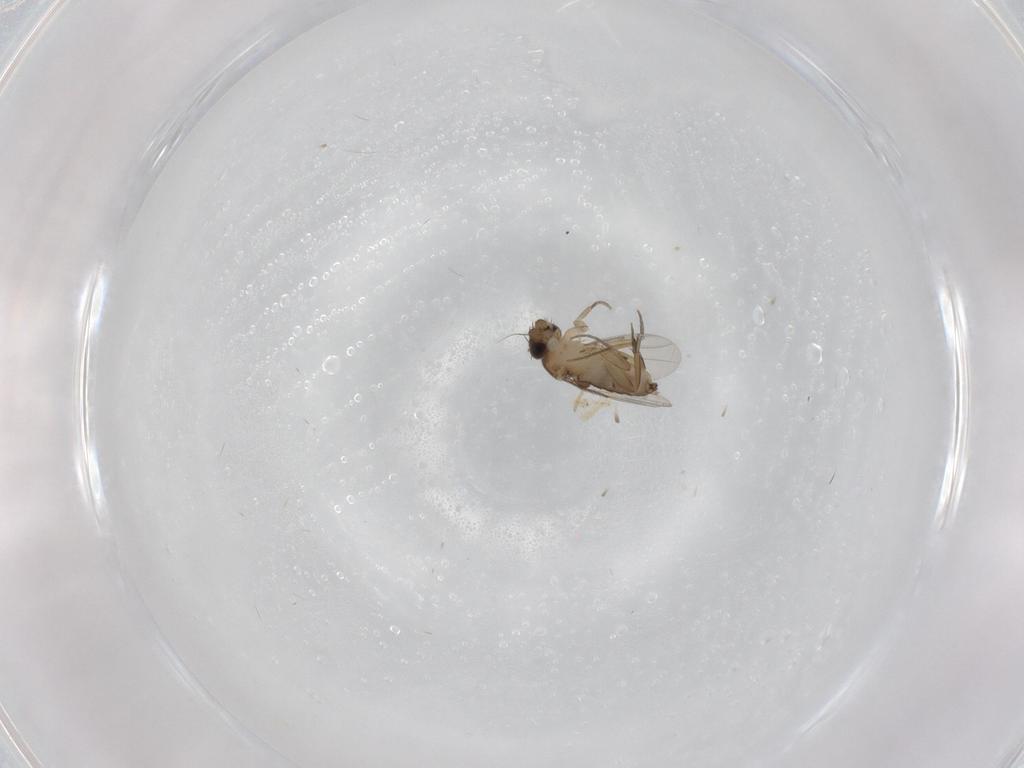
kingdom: Animalia
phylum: Arthropoda
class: Insecta
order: Diptera
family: Phoridae
